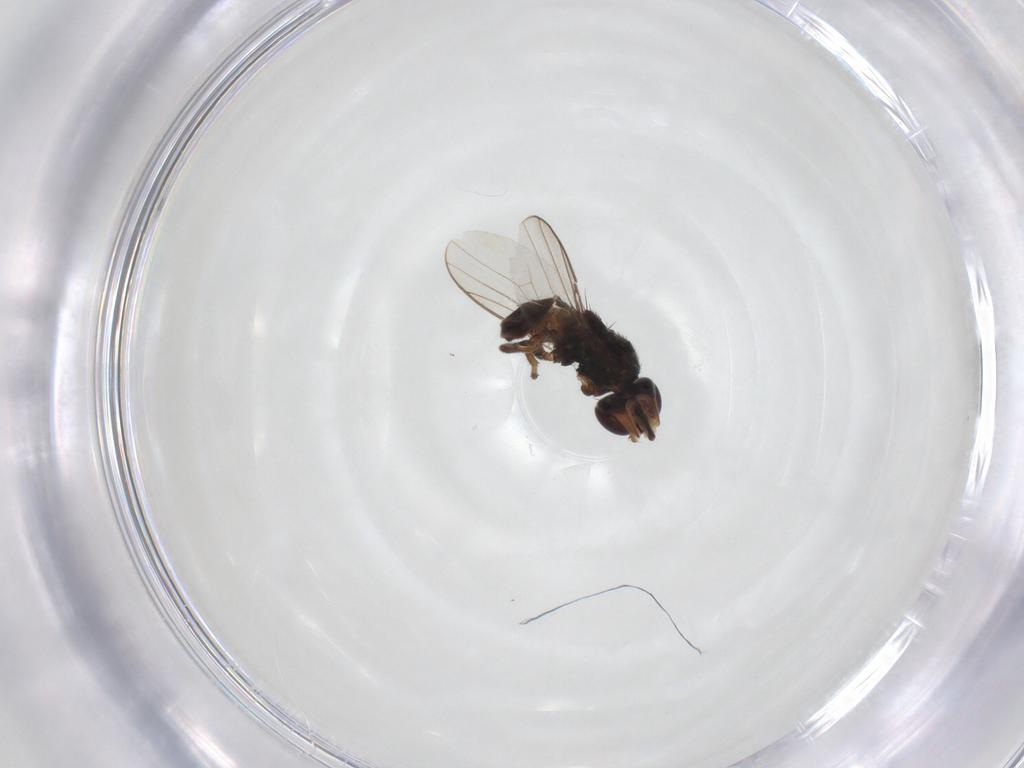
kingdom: Animalia
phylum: Arthropoda
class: Insecta
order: Diptera
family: Chloropidae
